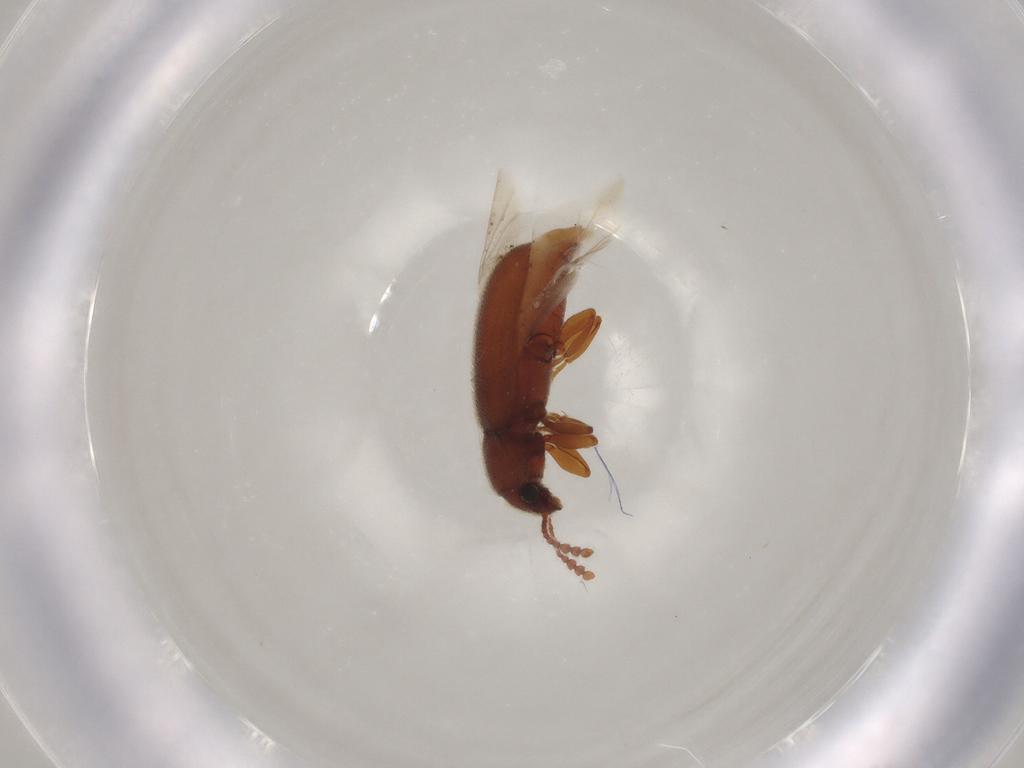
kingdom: Animalia
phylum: Arthropoda
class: Insecta
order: Coleoptera
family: Erotylidae
